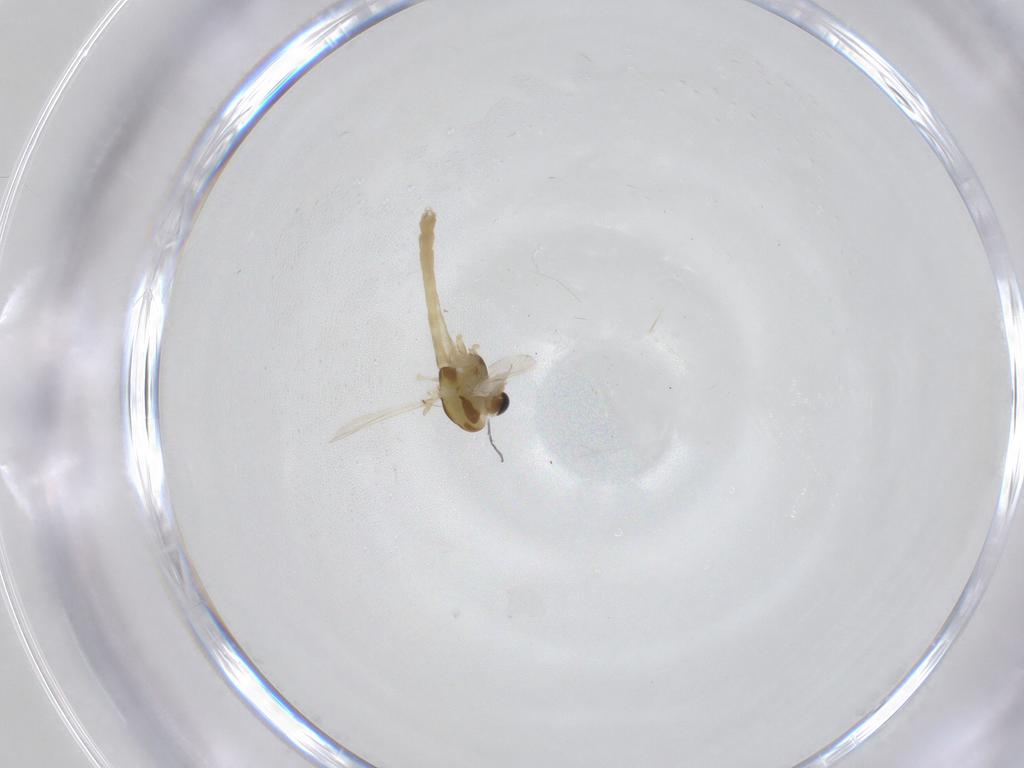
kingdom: Animalia
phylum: Arthropoda
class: Insecta
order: Diptera
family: Chironomidae
